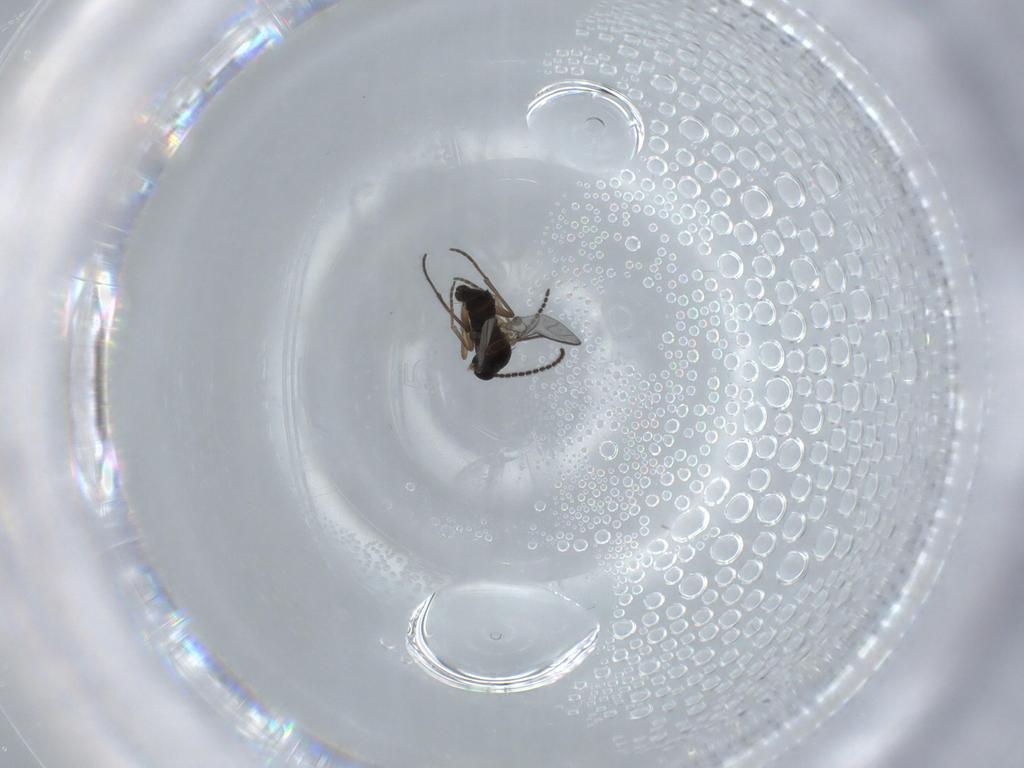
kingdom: Animalia
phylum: Arthropoda
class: Insecta
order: Diptera
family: Sciaridae
